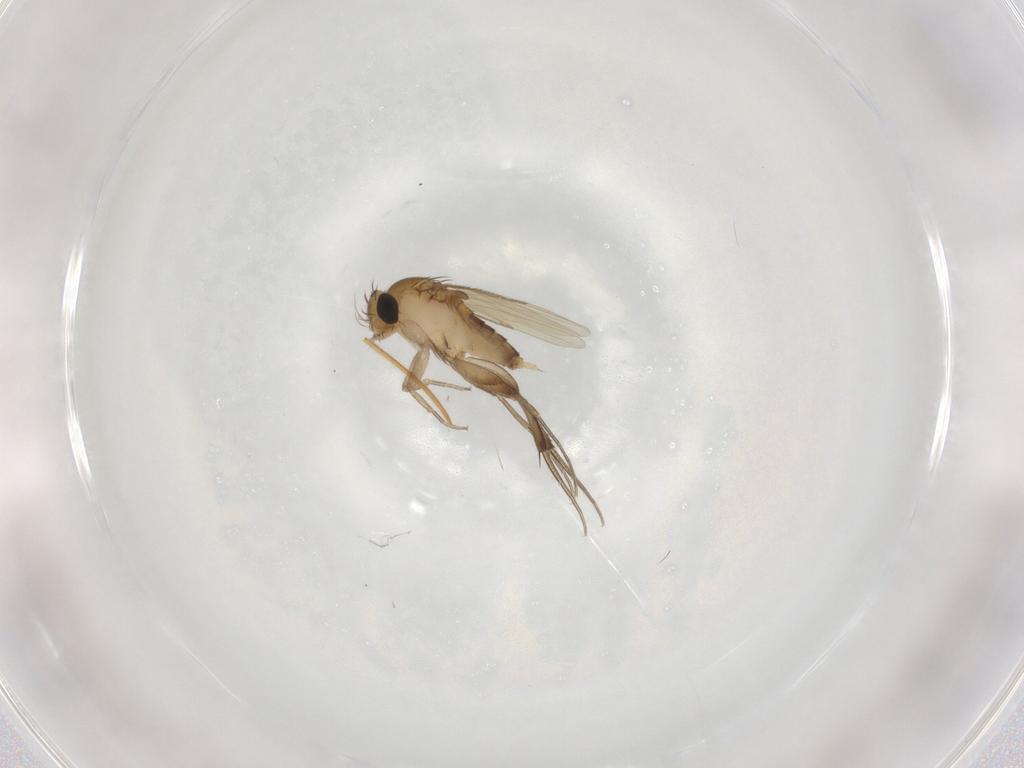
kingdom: Animalia
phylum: Arthropoda
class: Insecta
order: Diptera
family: Phoridae
